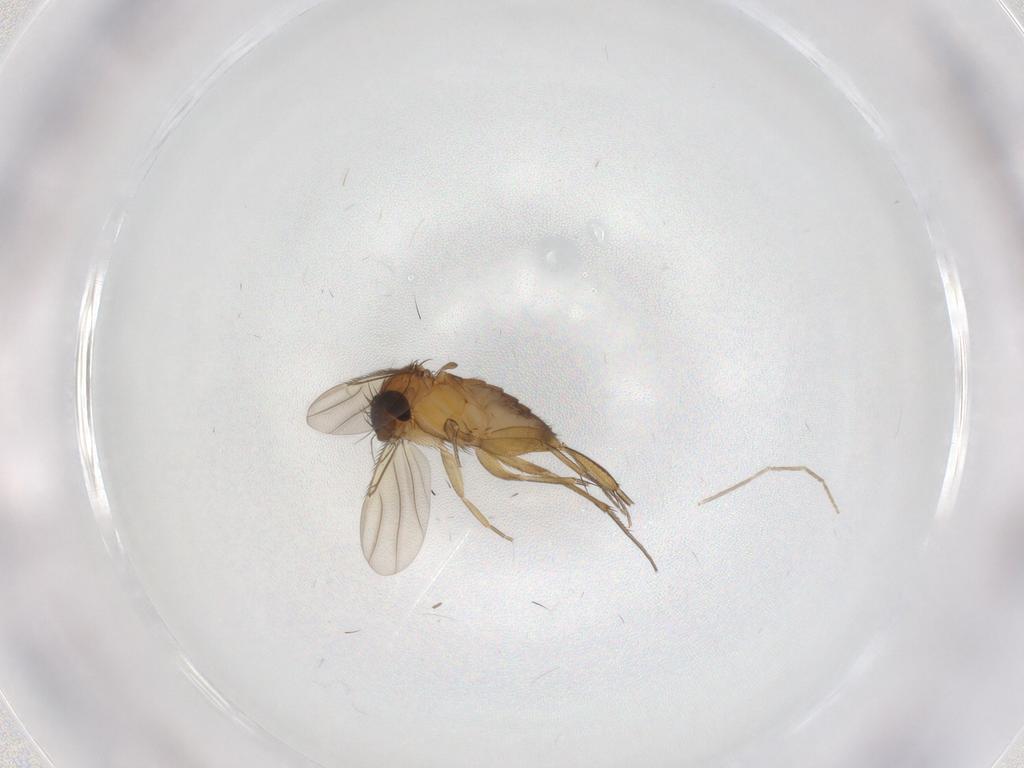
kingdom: Animalia
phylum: Arthropoda
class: Insecta
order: Diptera
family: Phoridae
